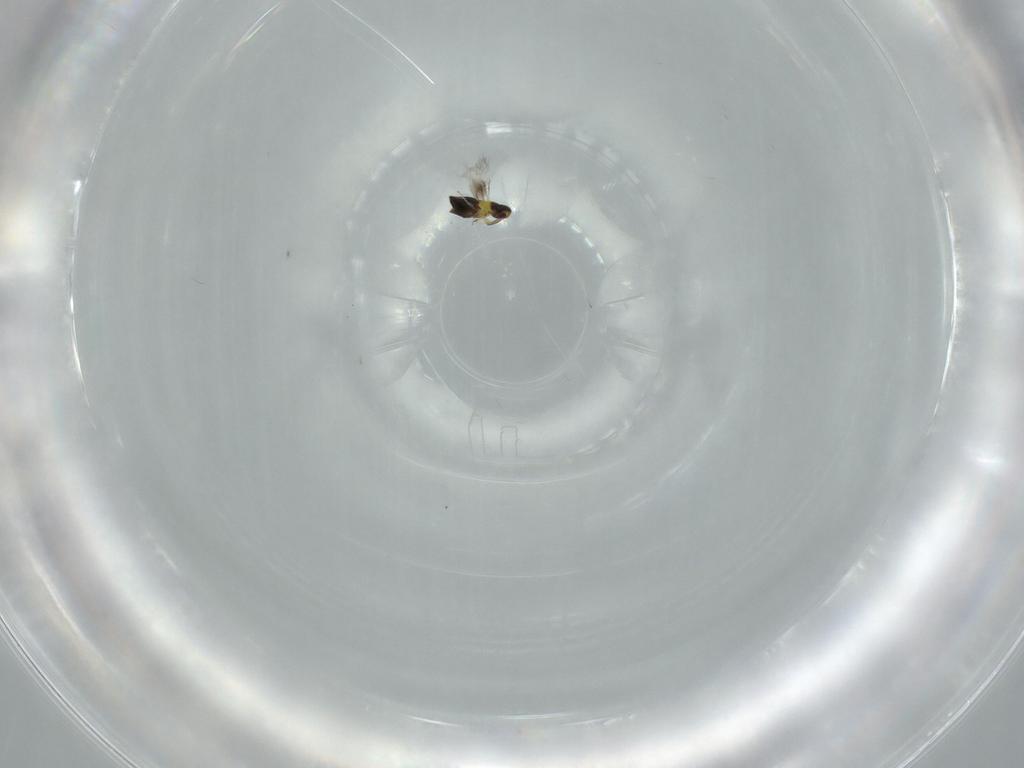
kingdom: Animalia
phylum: Arthropoda
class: Insecta
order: Hymenoptera
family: Signiphoridae
